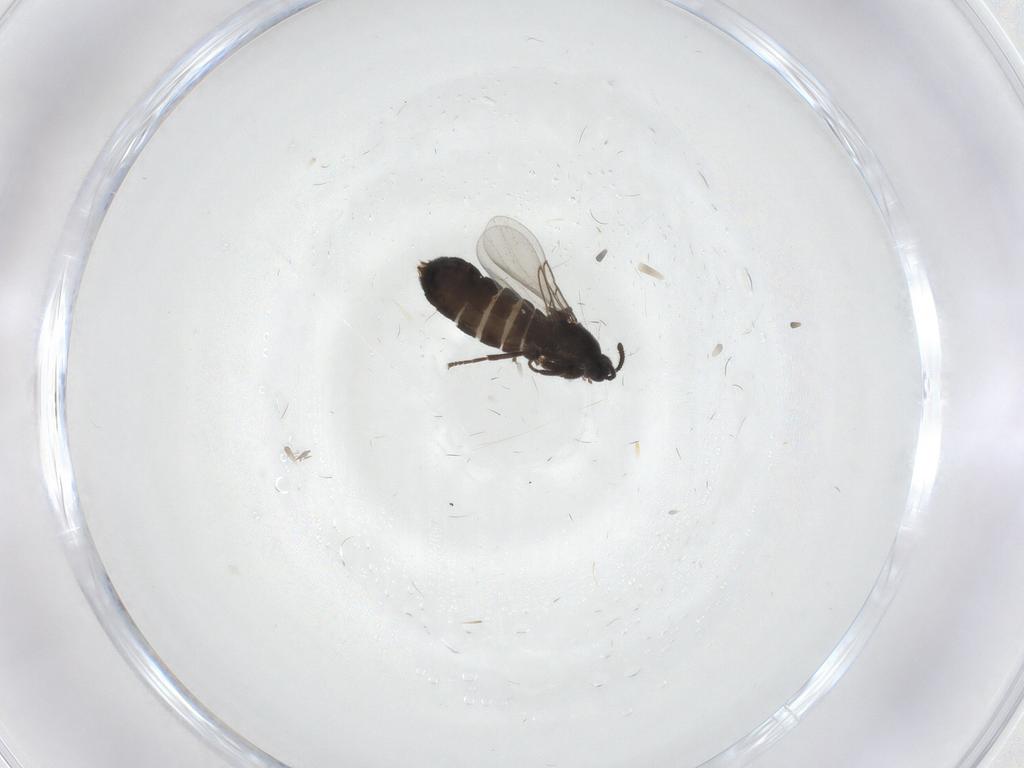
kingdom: Animalia
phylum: Arthropoda
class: Insecta
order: Diptera
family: Scatopsidae
